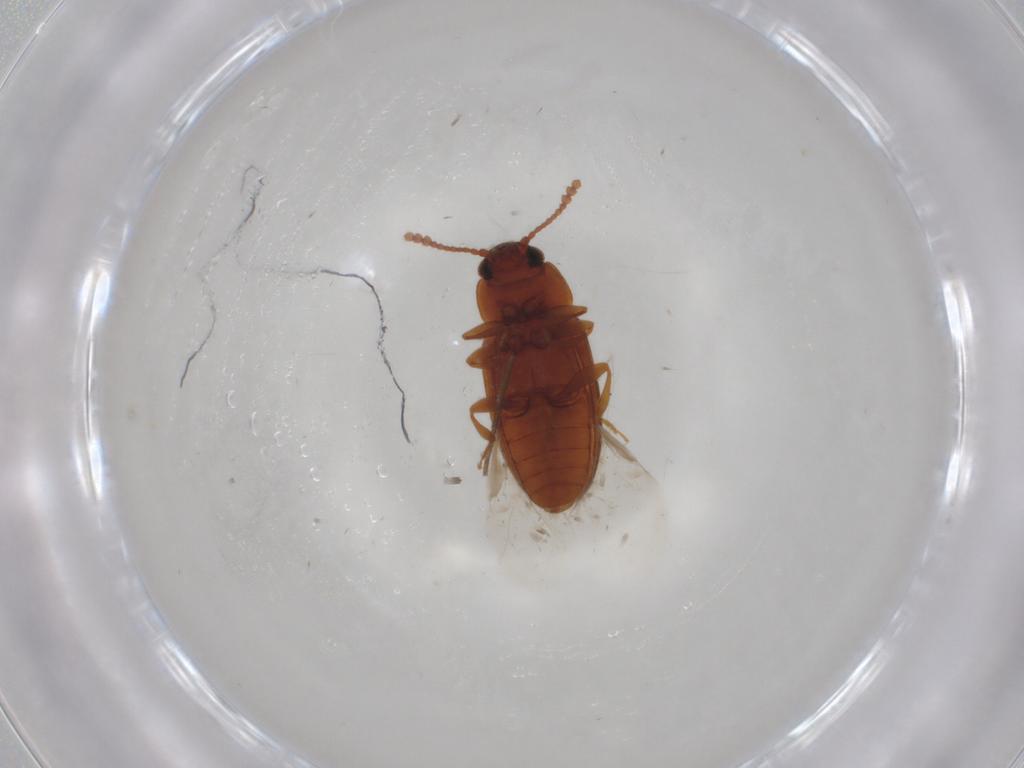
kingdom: Animalia
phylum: Arthropoda
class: Insecta
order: Coleoptera
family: Erotylidae
